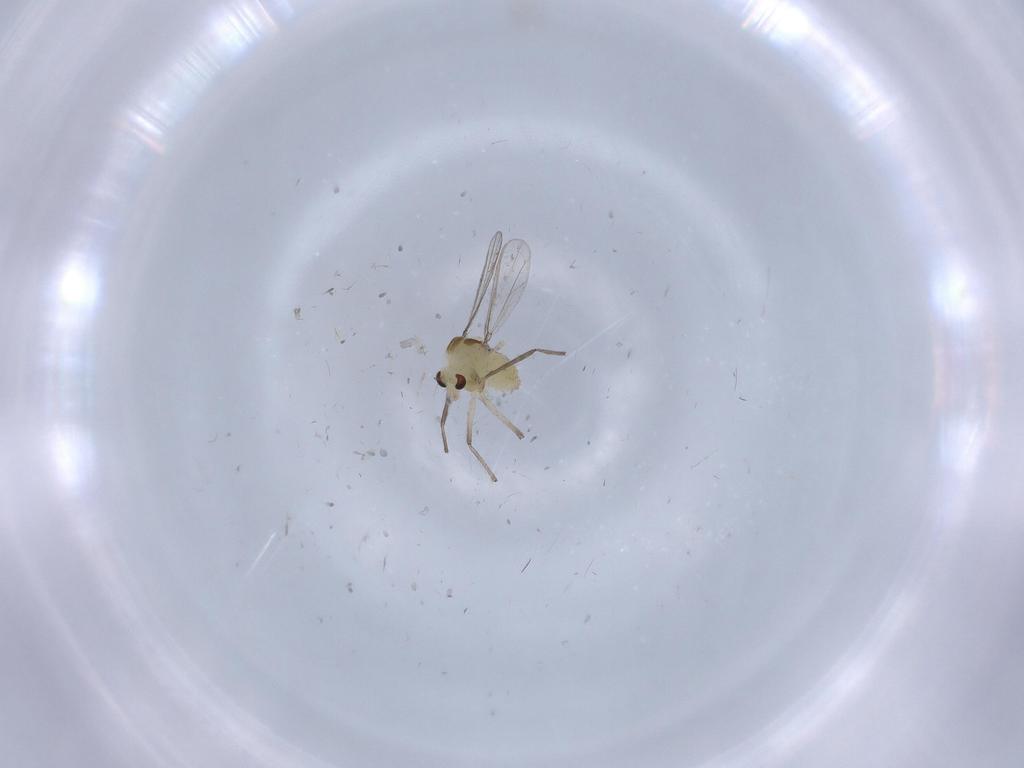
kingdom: Animalia
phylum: Arthropoda
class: Insecta
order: Diptera
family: Chironomidae
